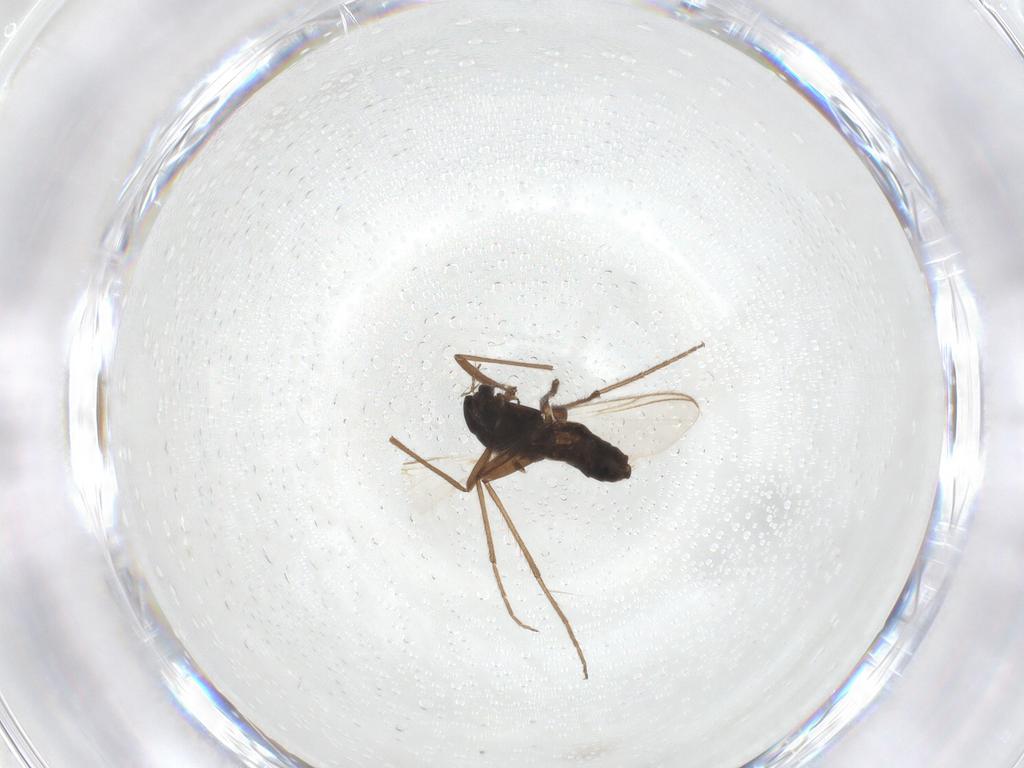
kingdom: Animalia
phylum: Arthropoda
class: Insecta
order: Diptera
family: Chironomidae
